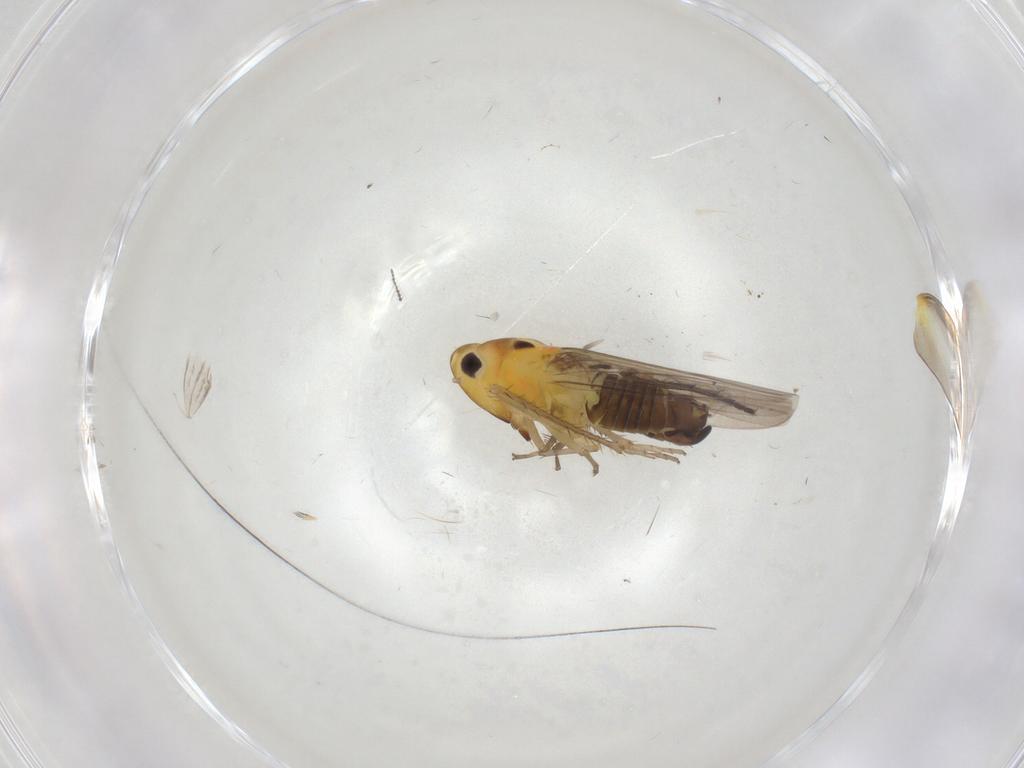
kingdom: Animalia
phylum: Arthropoda
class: Insecta
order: Hemiptera
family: Cicadellidae
